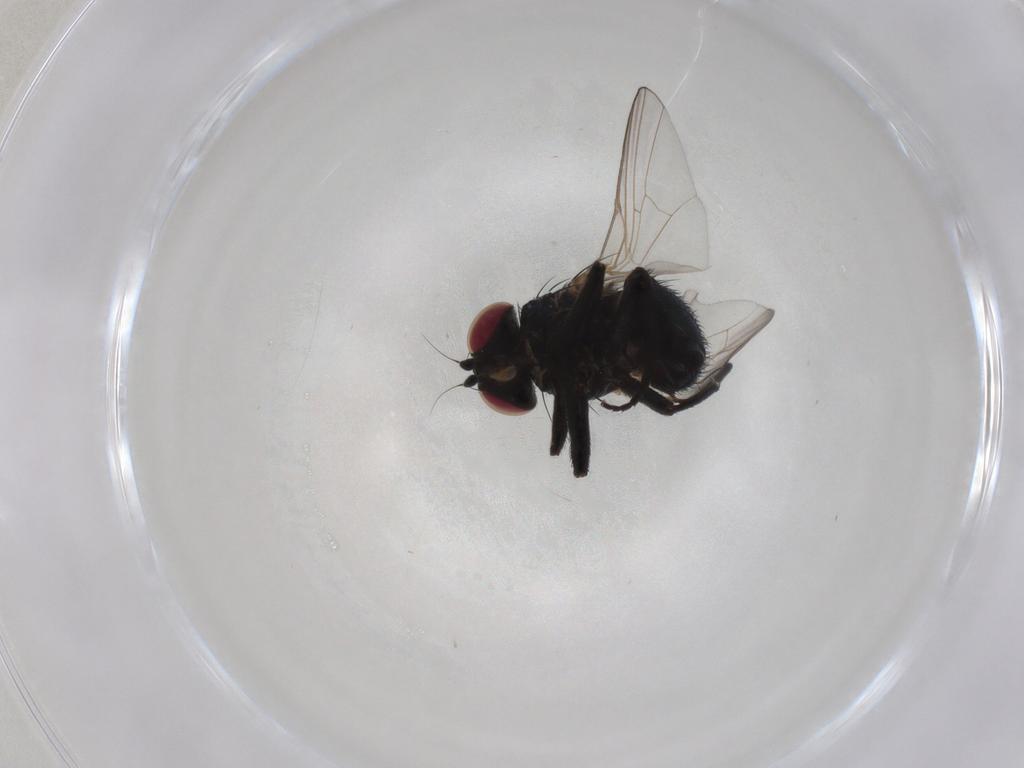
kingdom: Animalia
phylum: Arthropoda
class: Insecta
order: Diptera
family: Agromyzidae
